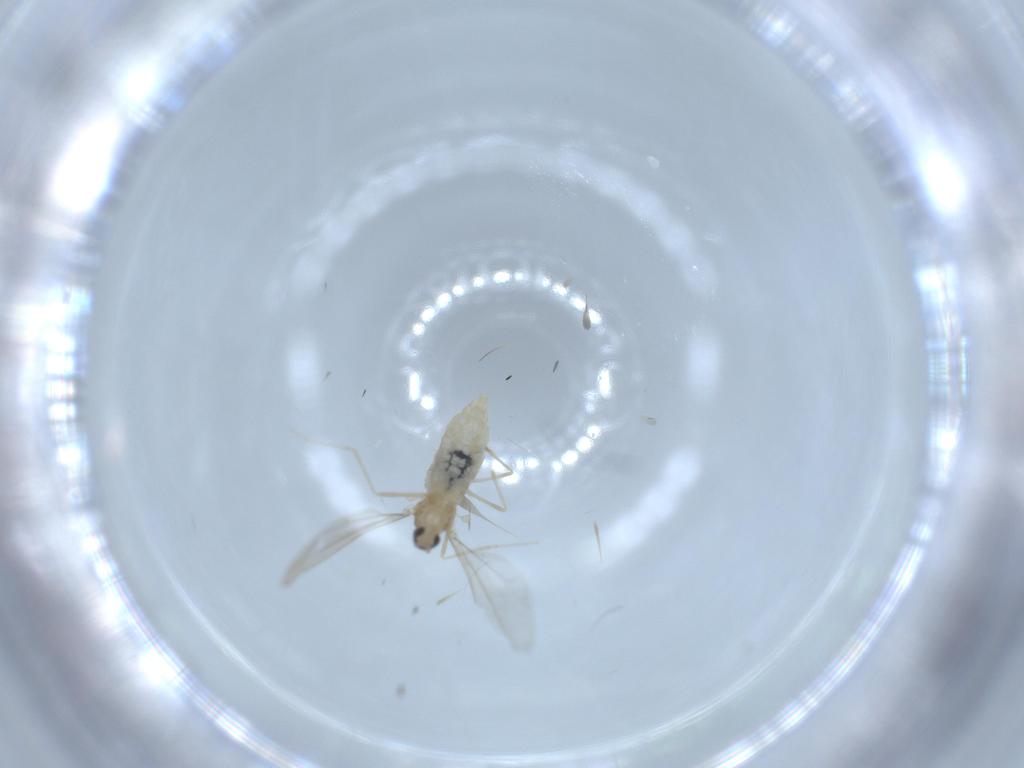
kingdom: Animalia
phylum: Arthropoda
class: Insecta
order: Diptera
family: Cecidomyiidae
